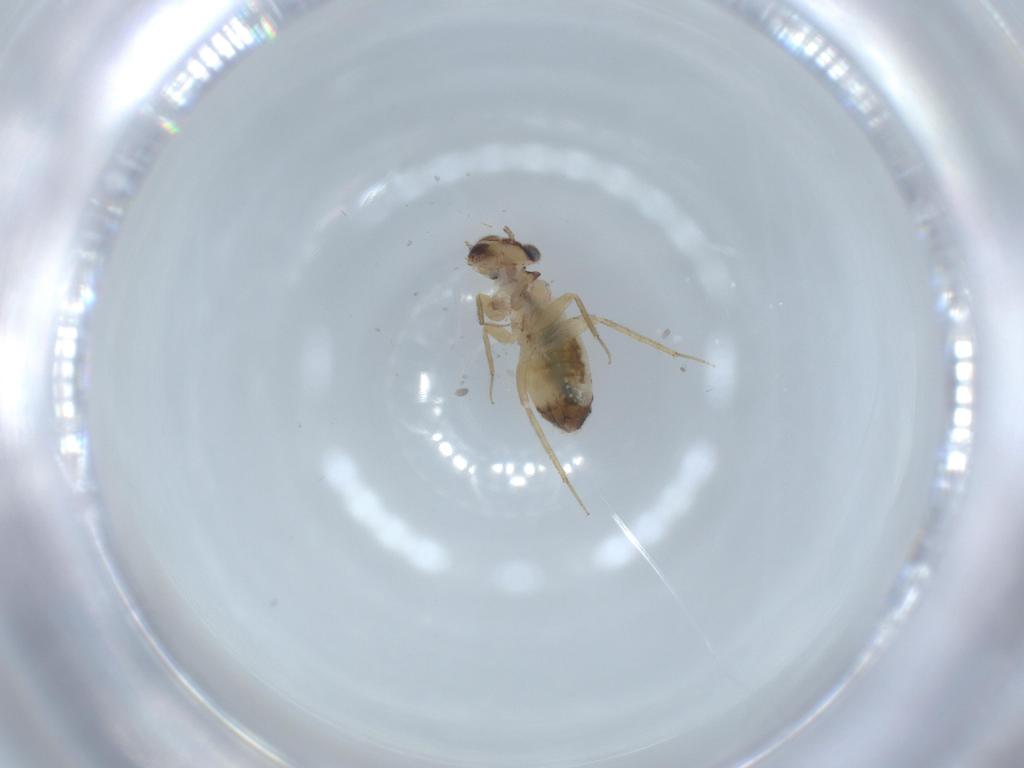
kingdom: Animalia
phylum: Arthropoda
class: Insecta
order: Psocodea
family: Lepidopsocidae
